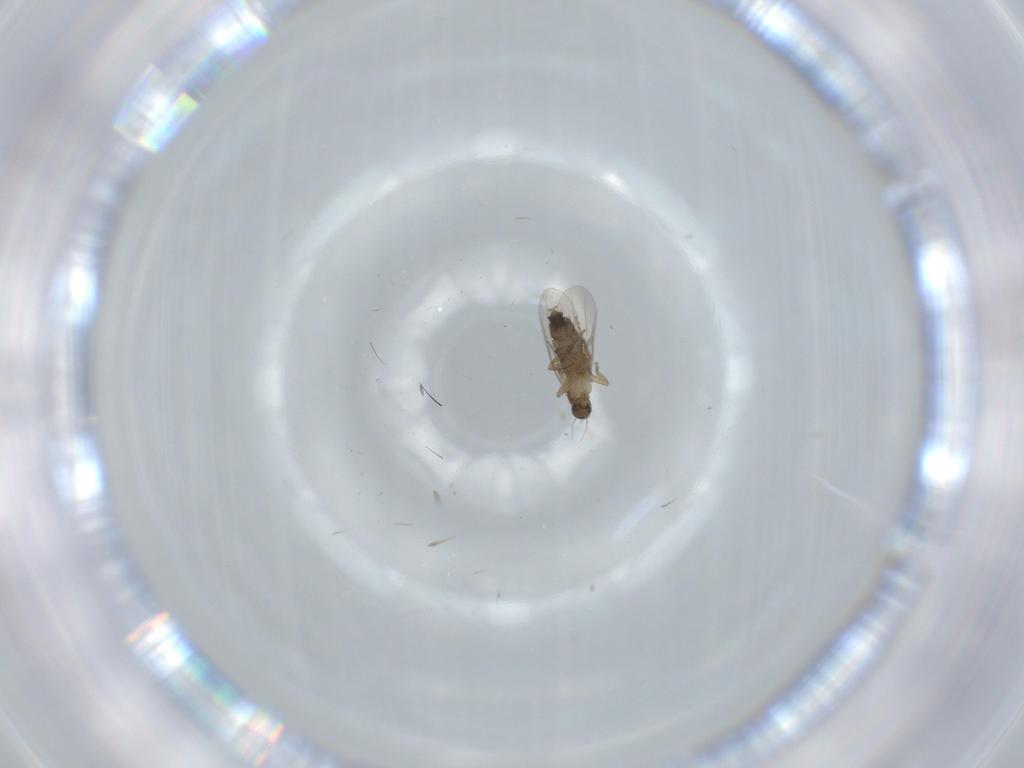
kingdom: Animalia
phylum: Arthropoda
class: Insecta
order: Diptera
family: Phoridae
